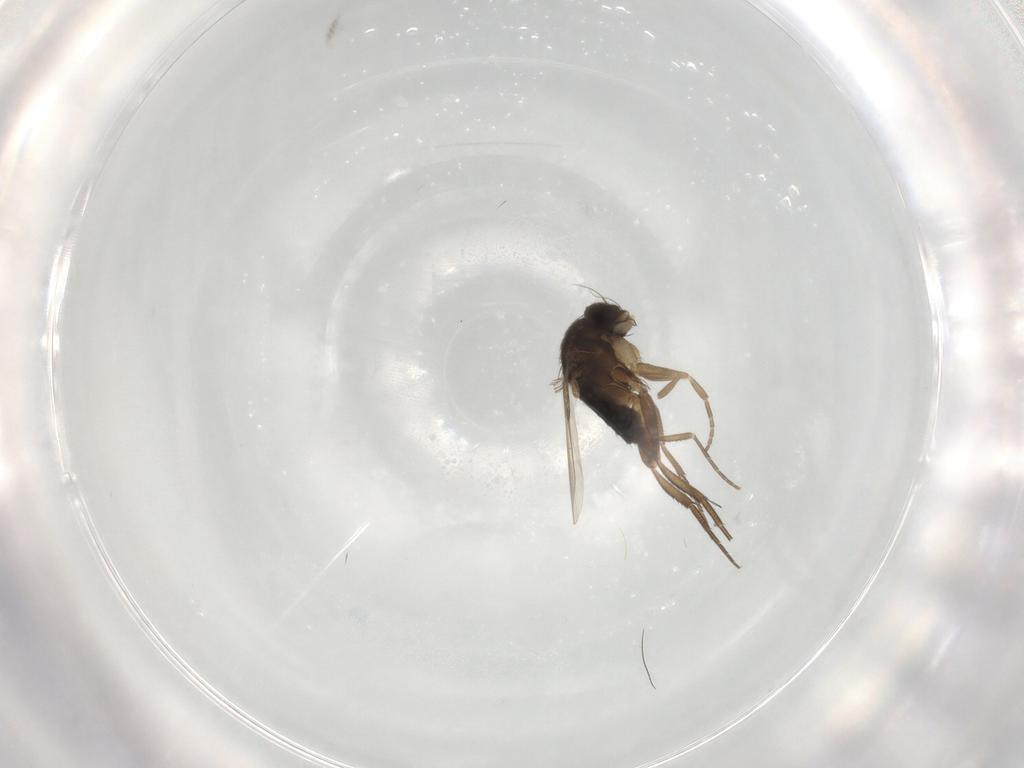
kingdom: Animalia
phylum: Arthropoda
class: Insecta
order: Diptera
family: Phoridae
